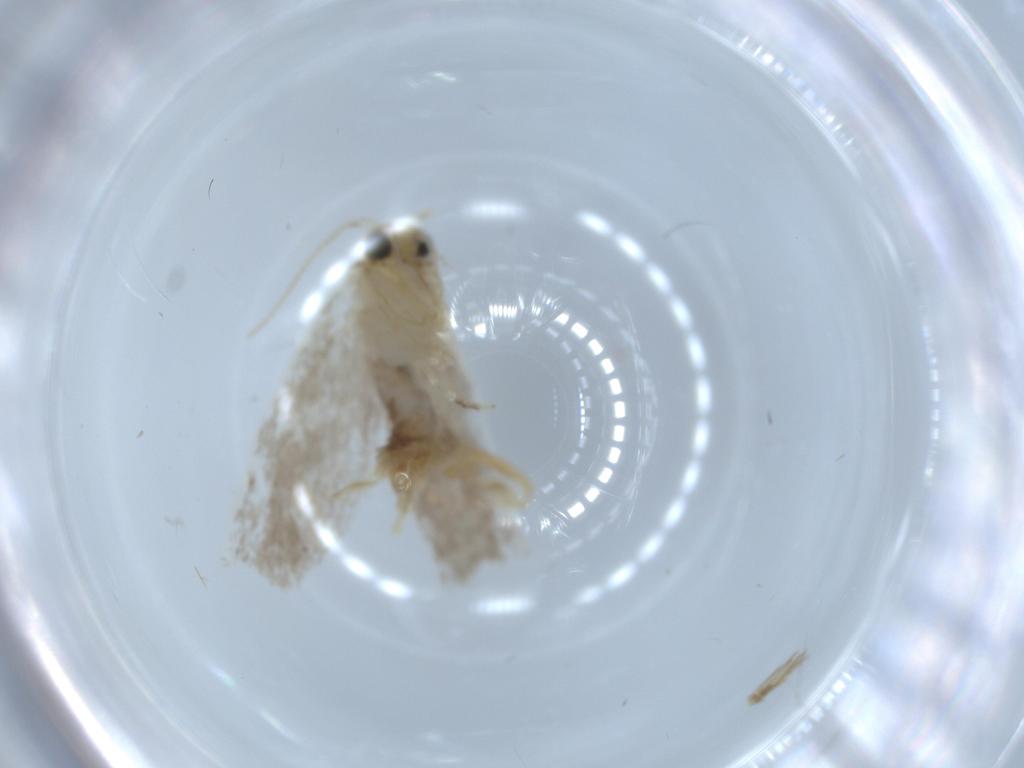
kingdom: Animalia
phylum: Arthropoda
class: Insecta
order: Lepidoptera
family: Tineidae
